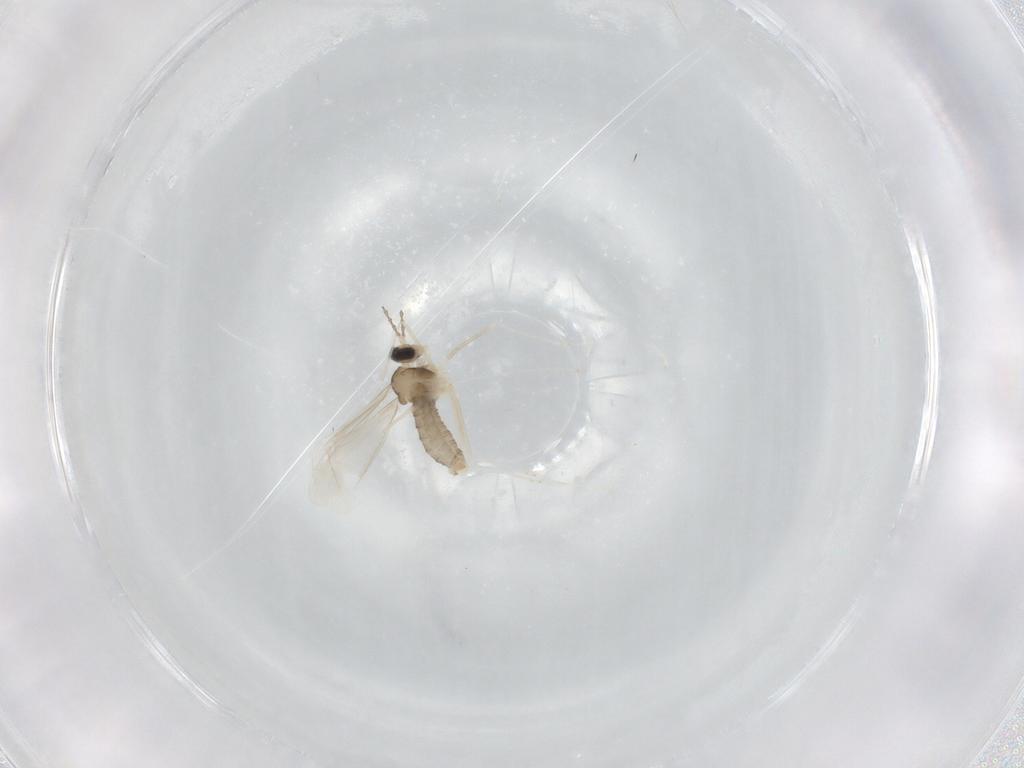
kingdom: Animalia
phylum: Arthropoda
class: Insecta
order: Diptera
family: Cecidomyiidae
